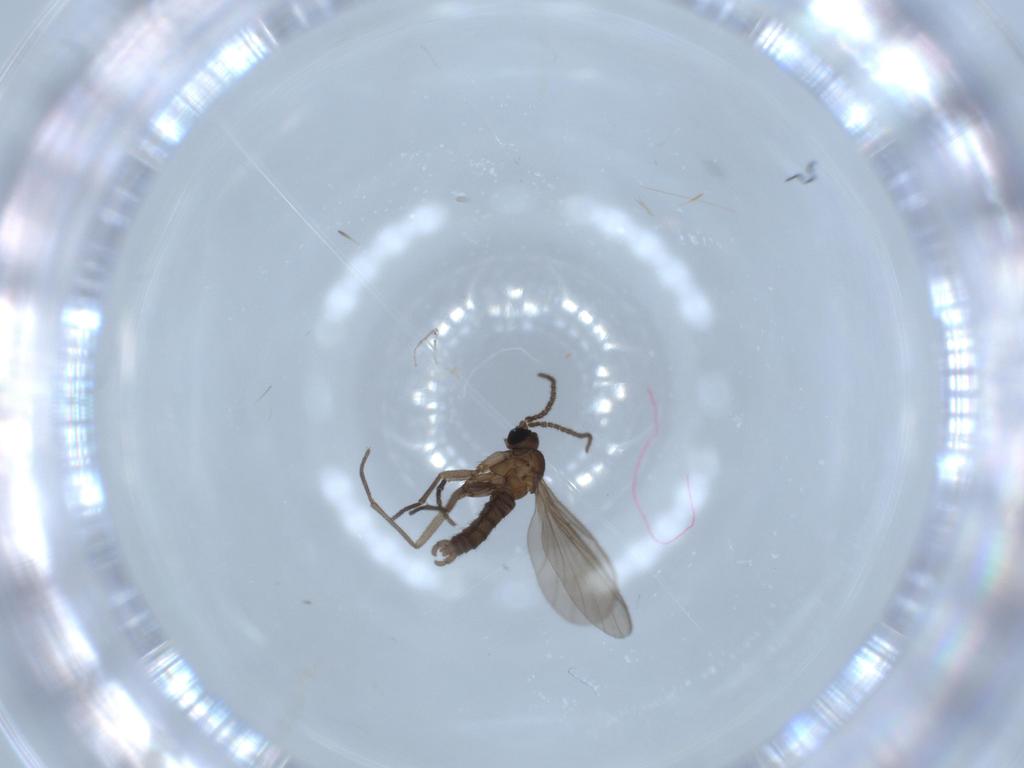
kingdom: Animalia
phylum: Arthropoda
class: Insecta
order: Diptera
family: Sciaridae
